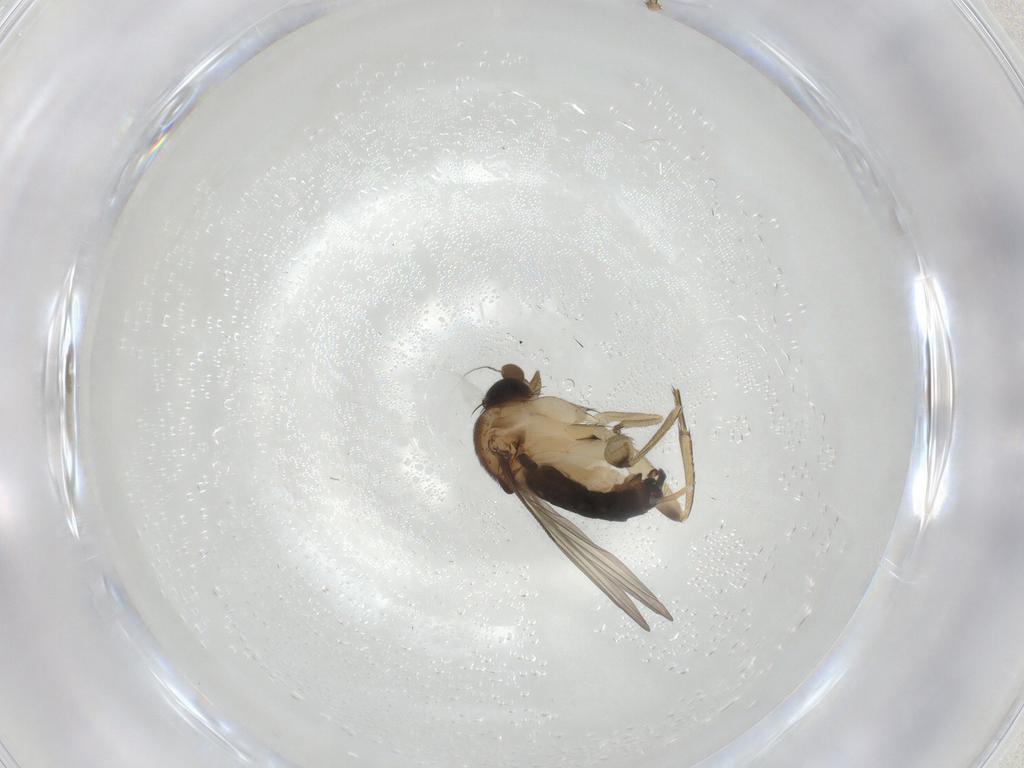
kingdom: Animalia
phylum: Arthropoda
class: Insecta
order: Diptera
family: Phoridae
